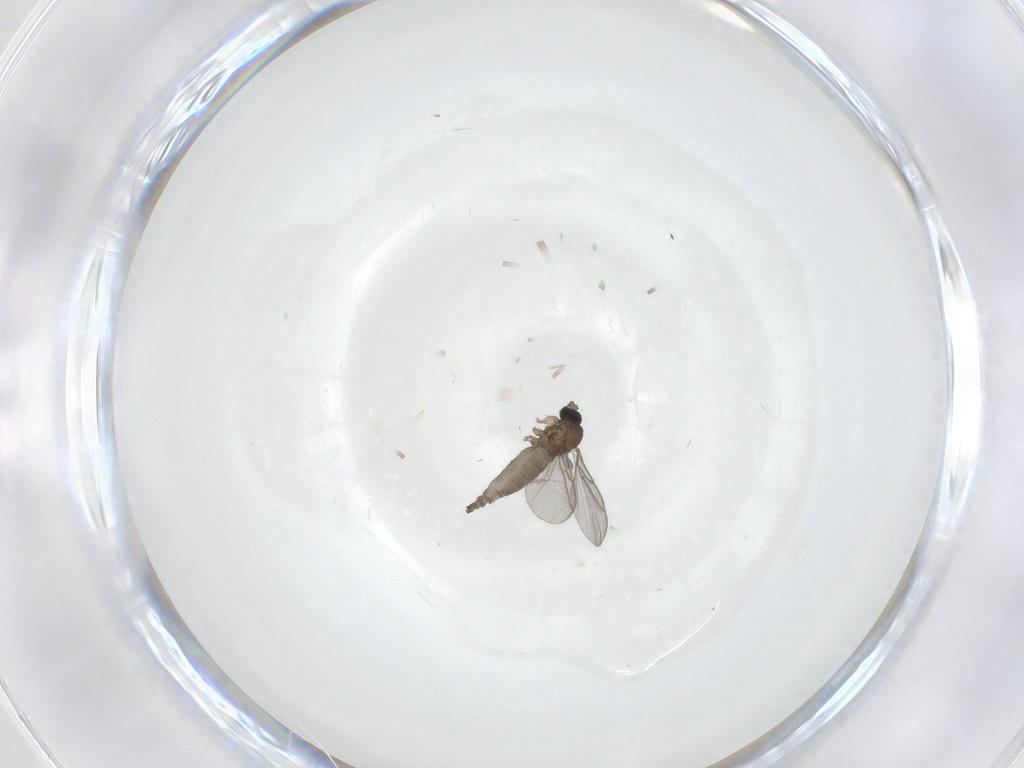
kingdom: Animalia
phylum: Arthropoda
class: Insecta
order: Diptera
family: Sciaridae
